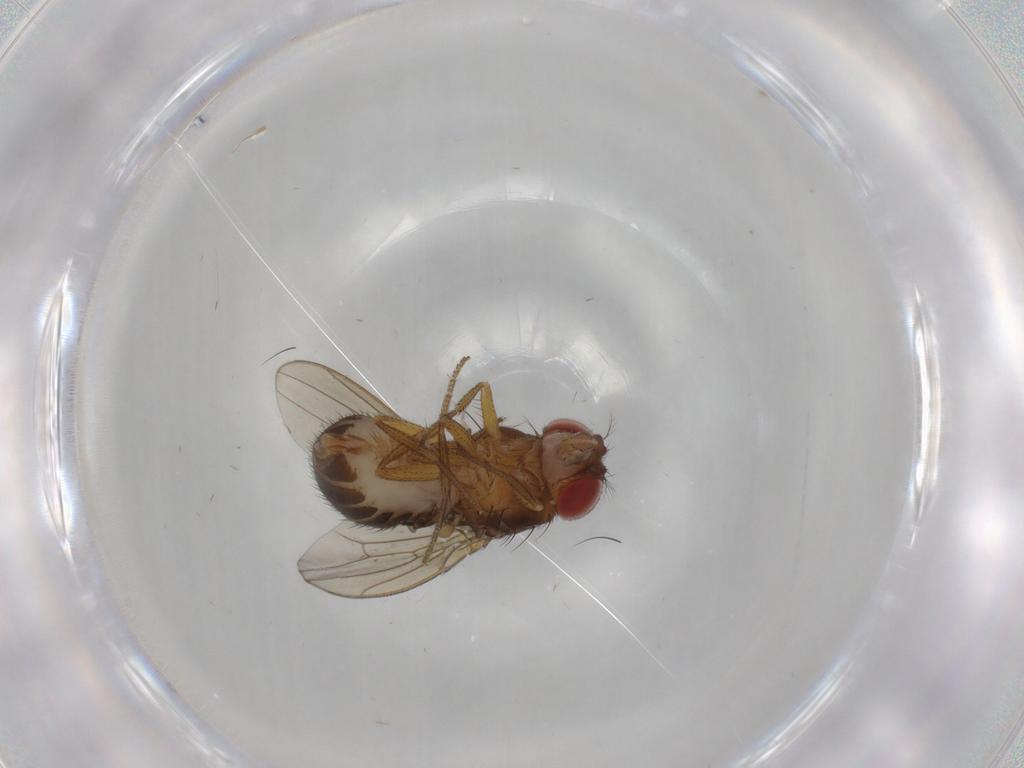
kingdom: Animalia
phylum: Arthropoda
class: Insecta
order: Diptera
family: Drosophilidae
